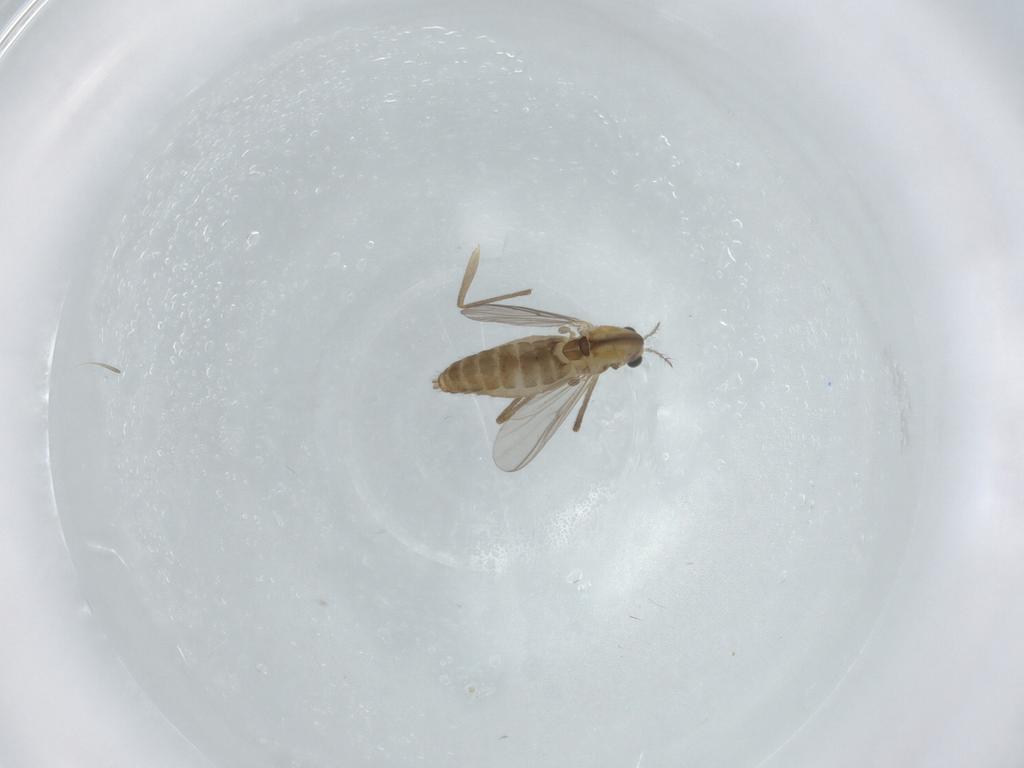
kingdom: Animalia
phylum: Arthropoda
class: Insecta
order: Diptera
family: Chironomidae
